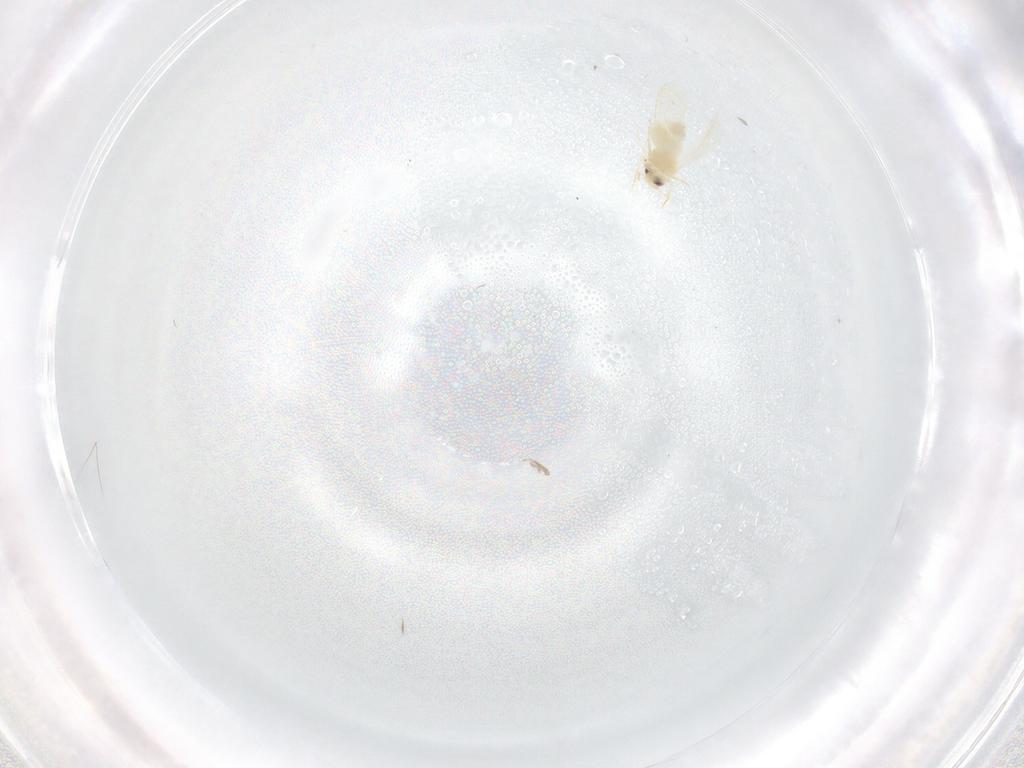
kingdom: Animalia
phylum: Arthropoda
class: Insecta
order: Hemiptera
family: Aleyrodidae
